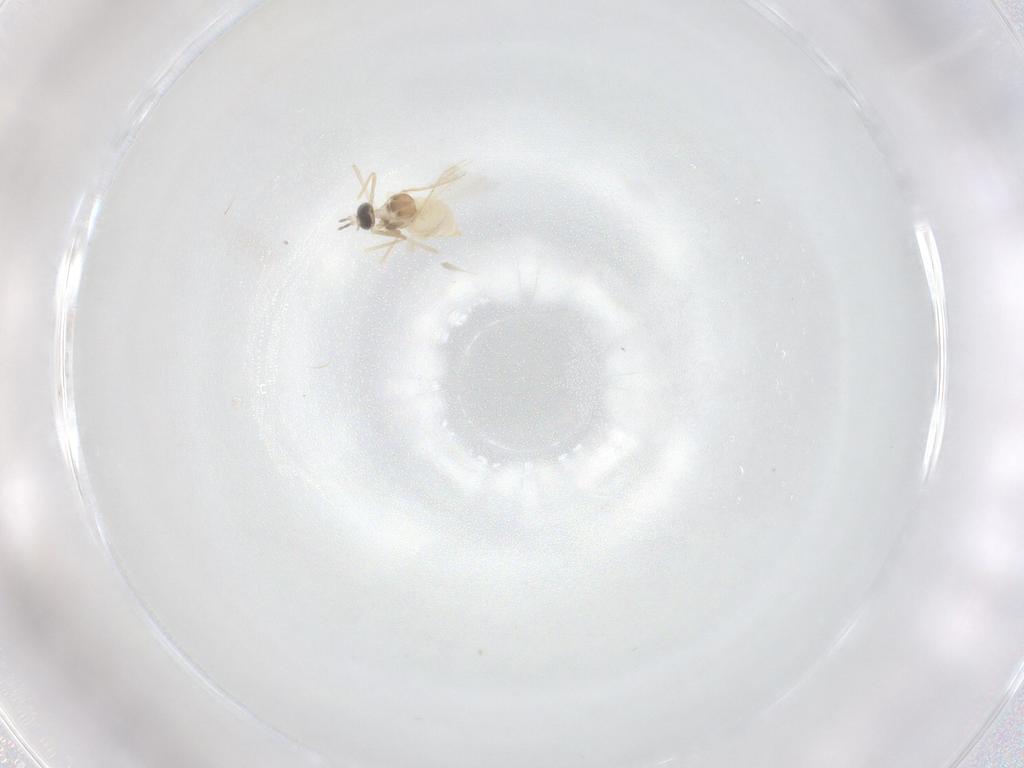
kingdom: Animalia
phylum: Arthropoda
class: Insecta
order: Diptera
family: Cecidomyiidae
